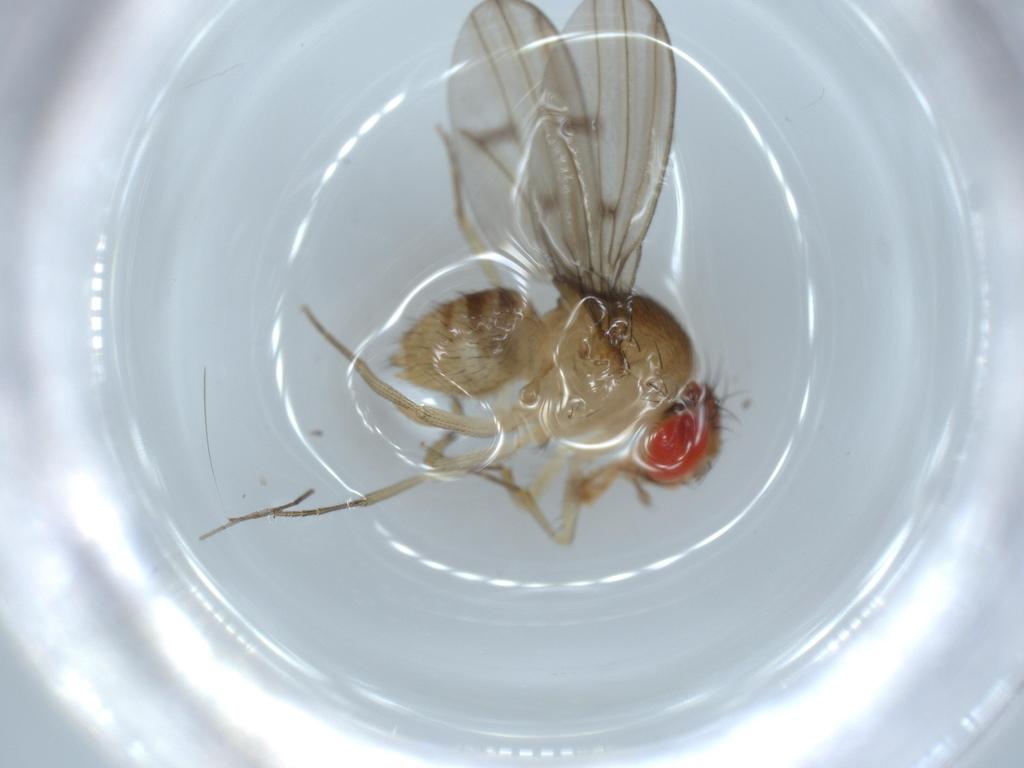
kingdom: Animalia
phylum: Arthropoda
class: Insecta
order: Diptera
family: Drosophilidae
